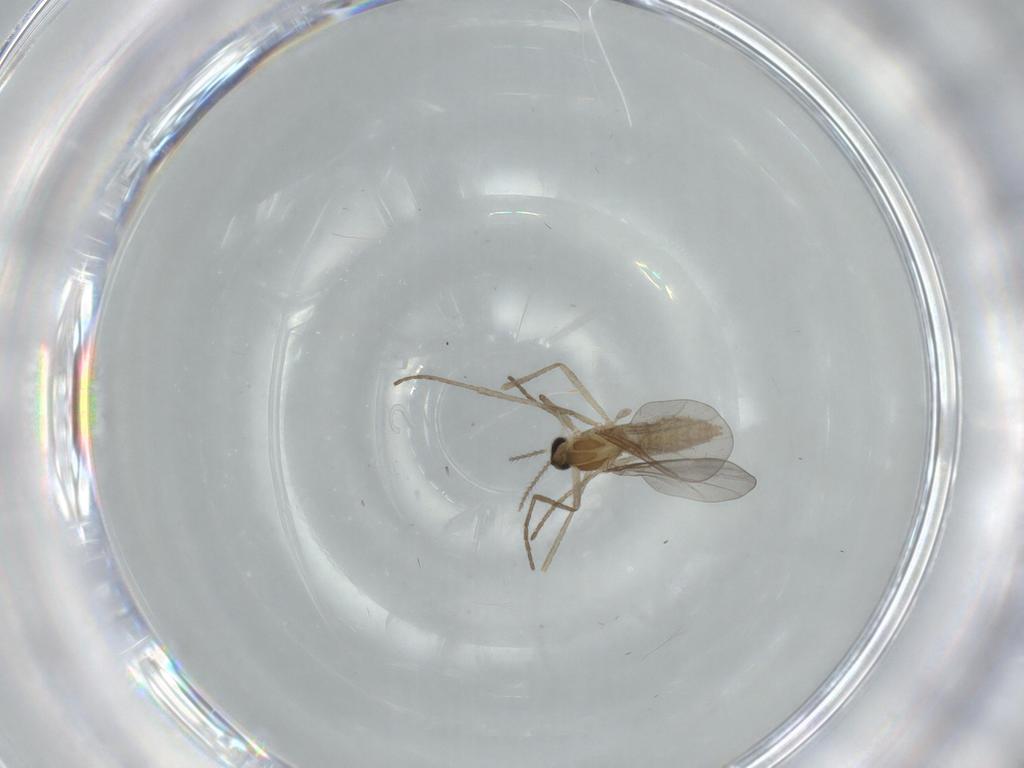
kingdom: Animalia
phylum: Arthropoda
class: Insecta
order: Diptera
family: Cecidomyiidae
